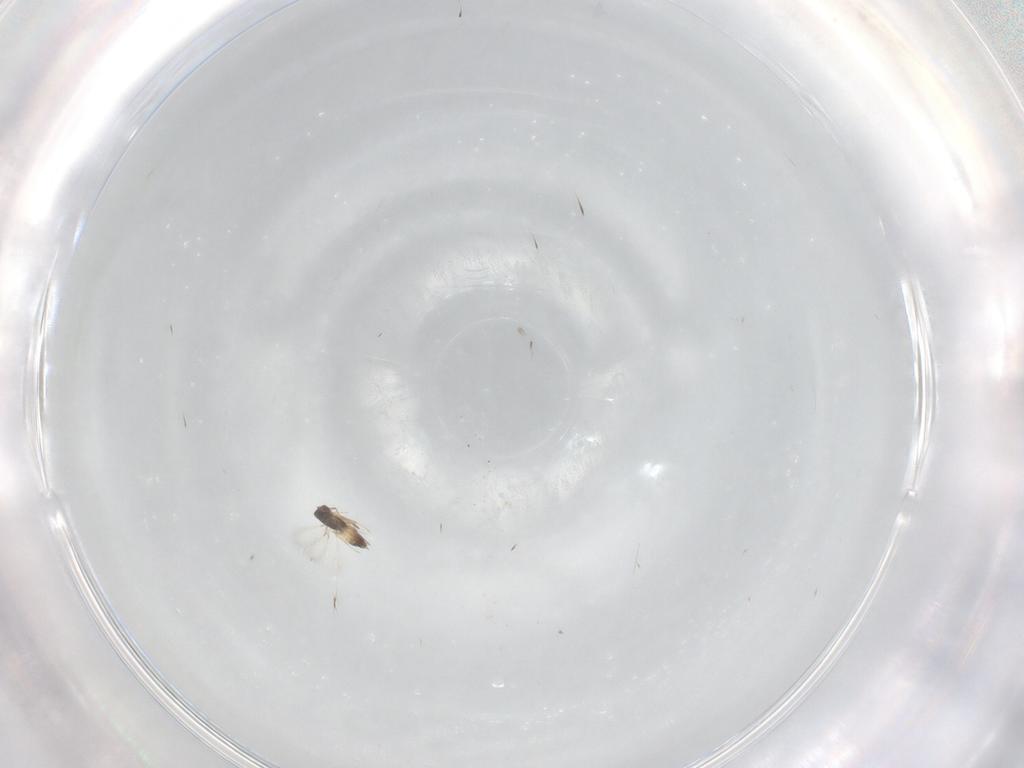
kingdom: Animalia
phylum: Arthropoda
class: Insecta
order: Hymenoptera
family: Mymaridae
